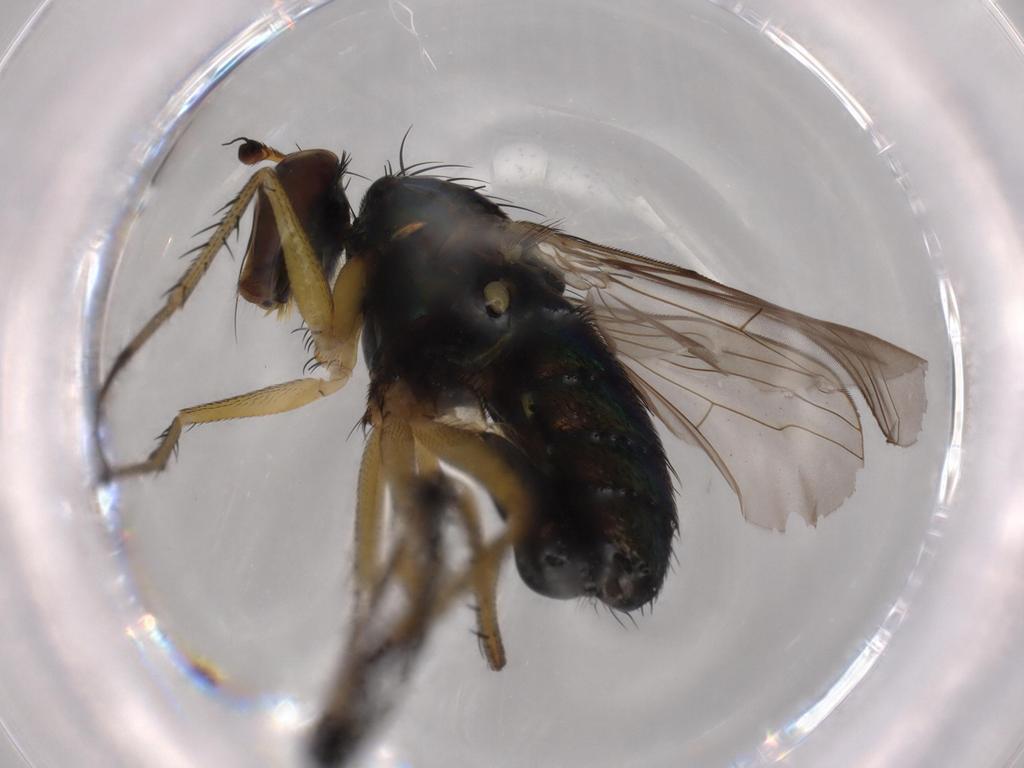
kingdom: Animalia
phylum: Arthropoda
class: Insecta
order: Diptera
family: Dolichopodidae
